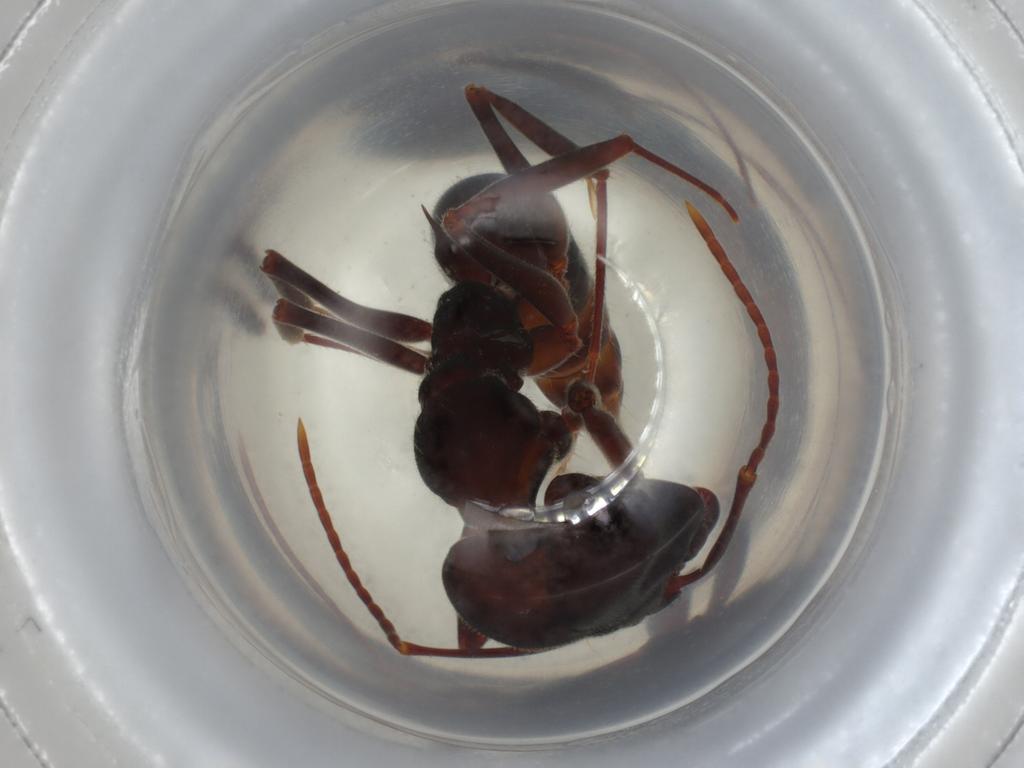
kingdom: Animalia
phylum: Arthropoda
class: Insecta
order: Hymenoptera
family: Formicidae
